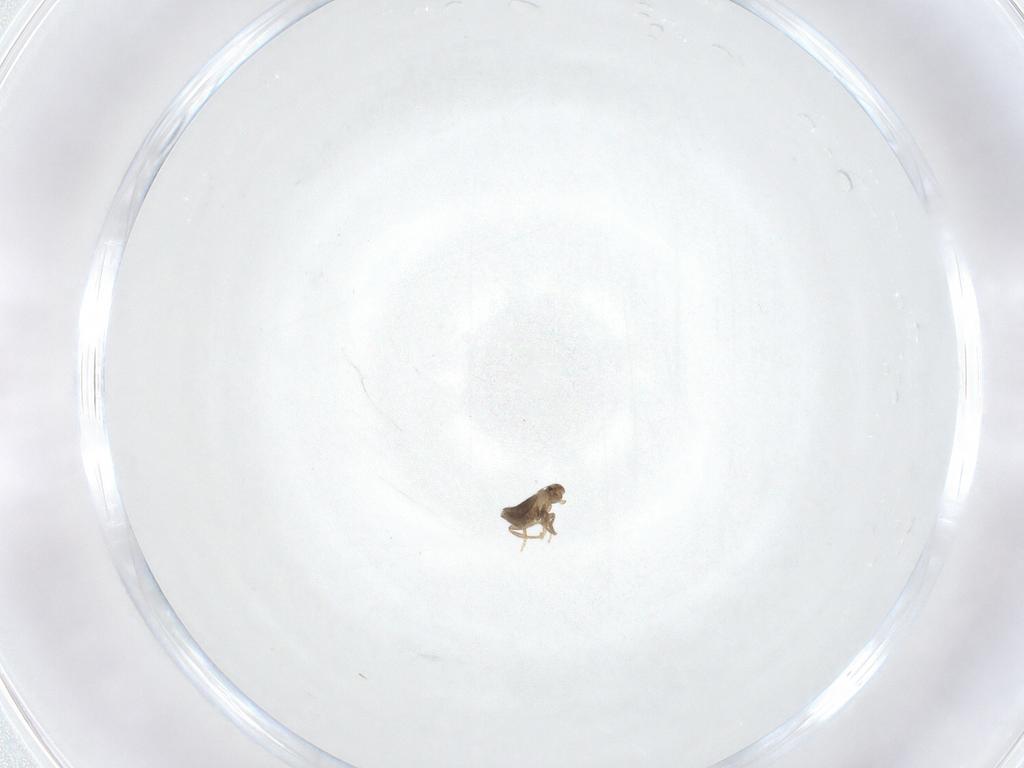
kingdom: Animalia
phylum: Arthropoda
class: Insecta
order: Diptera
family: Phoridae
